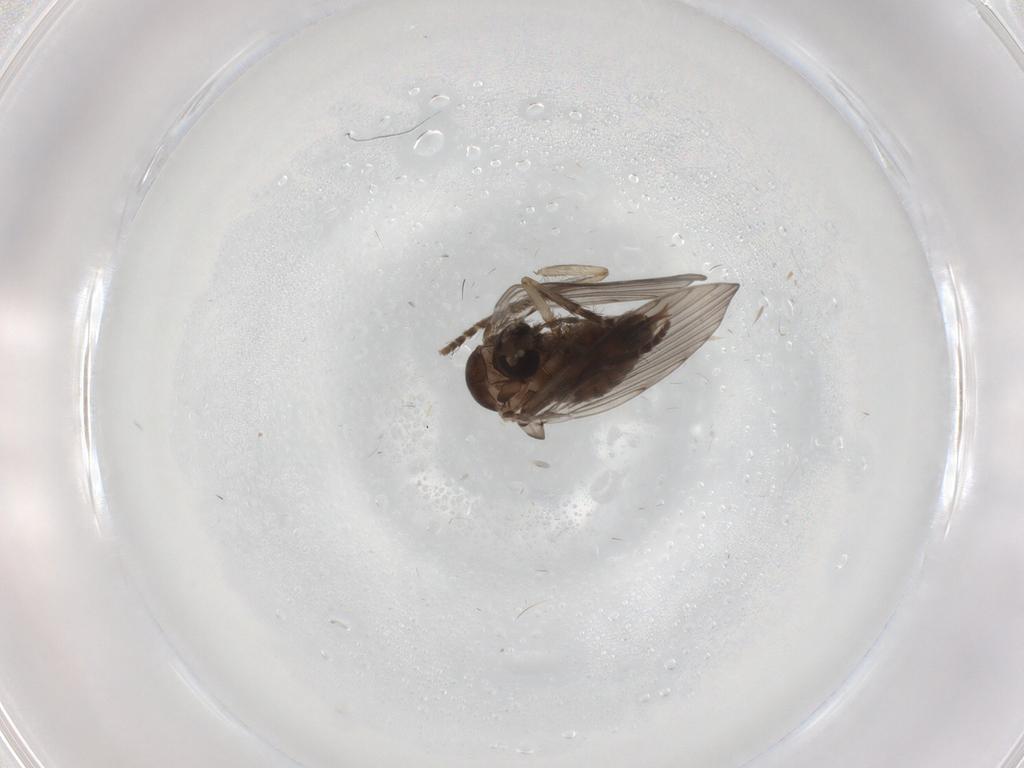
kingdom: Animalia
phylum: Arthropoda
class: Insecta
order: Diptera
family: Psychodidae
